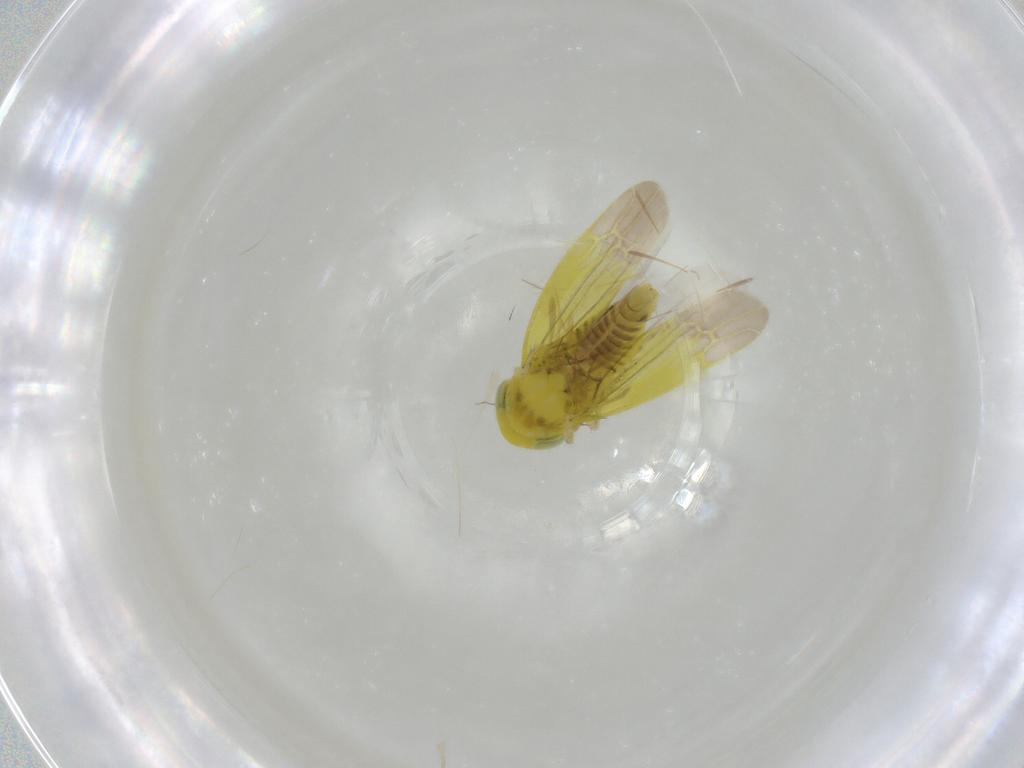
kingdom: Animalia
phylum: Arthropoda
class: Insecta
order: Hemiptera
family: Cicadellidae
